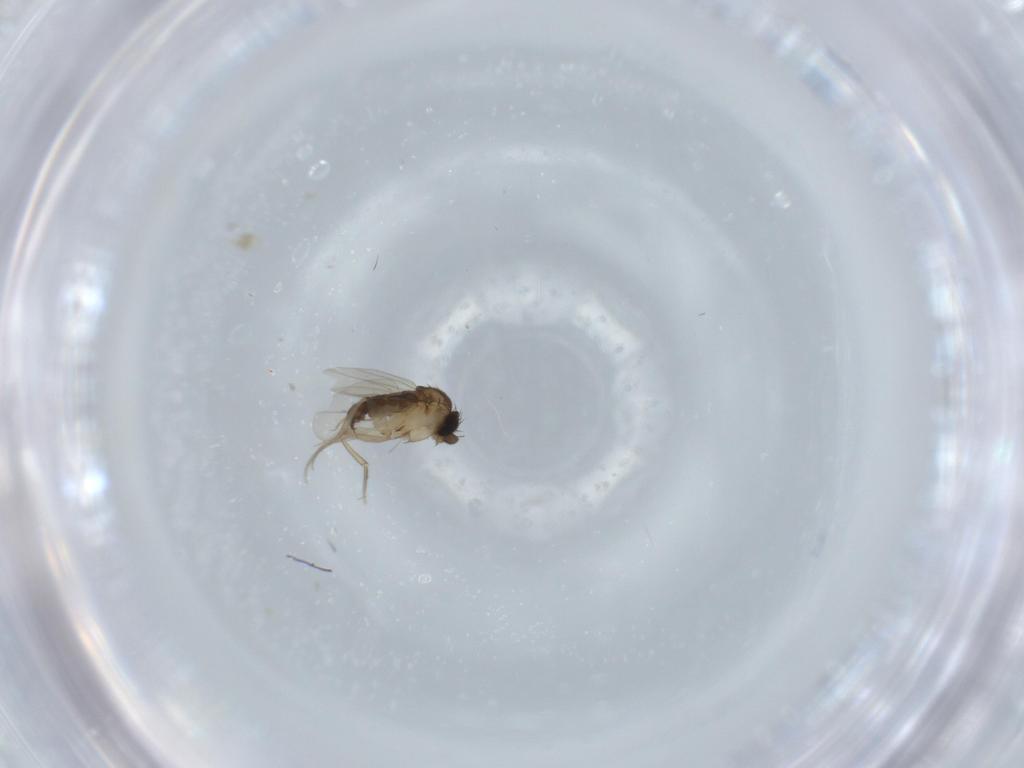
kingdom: Animalia
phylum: Arthropoda
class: Insecta
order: Diptera
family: Phoridae
